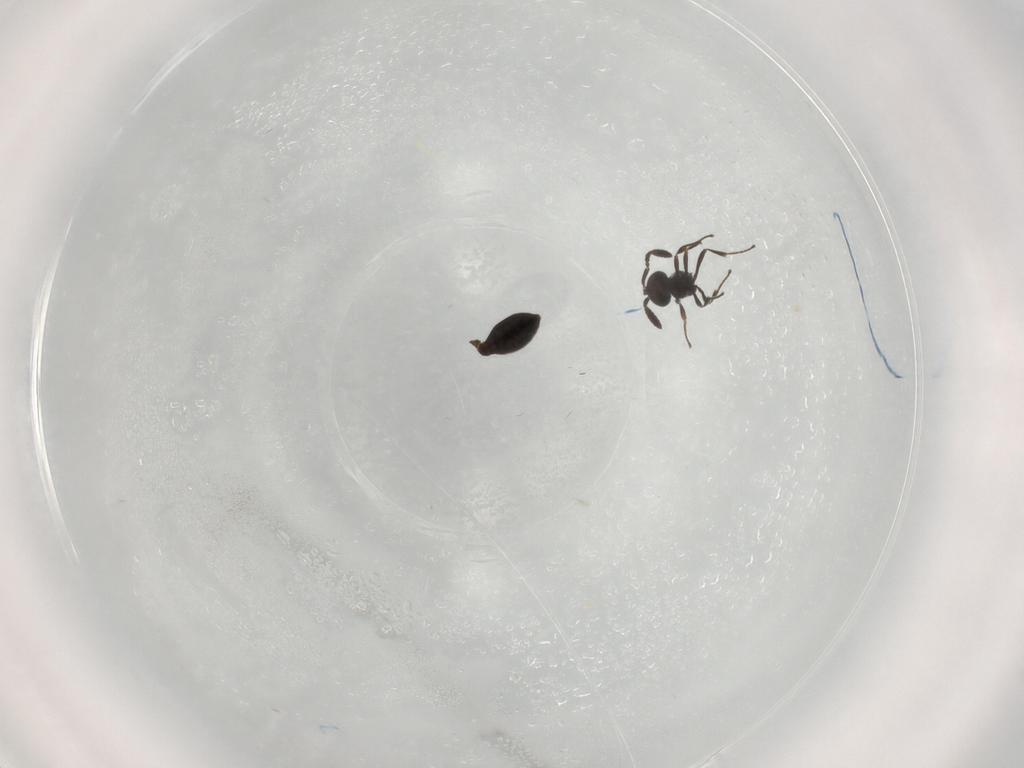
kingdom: Animalia
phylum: Arthropoda
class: Insecta
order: Hymenoptera
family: Scelionidae
